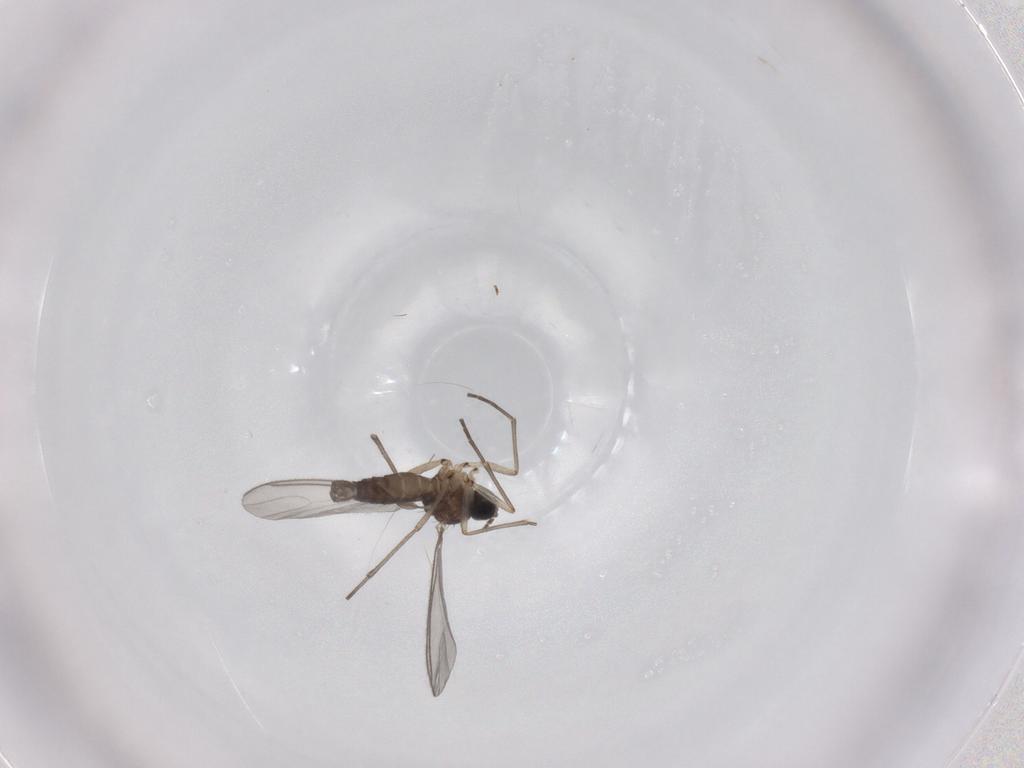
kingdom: Animalia
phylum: Arthropoda
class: Insecta
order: Diptera
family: Sciaridae
